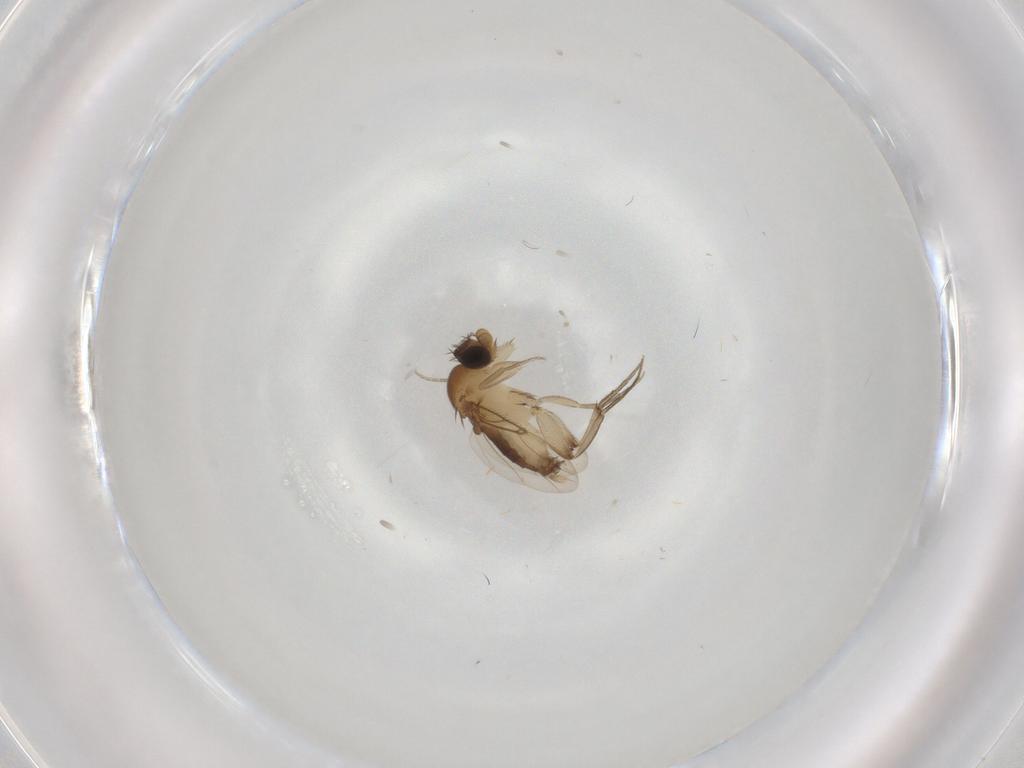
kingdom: Animalia
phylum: Arthropoda
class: Insecta
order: Diptera
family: Phoridae
